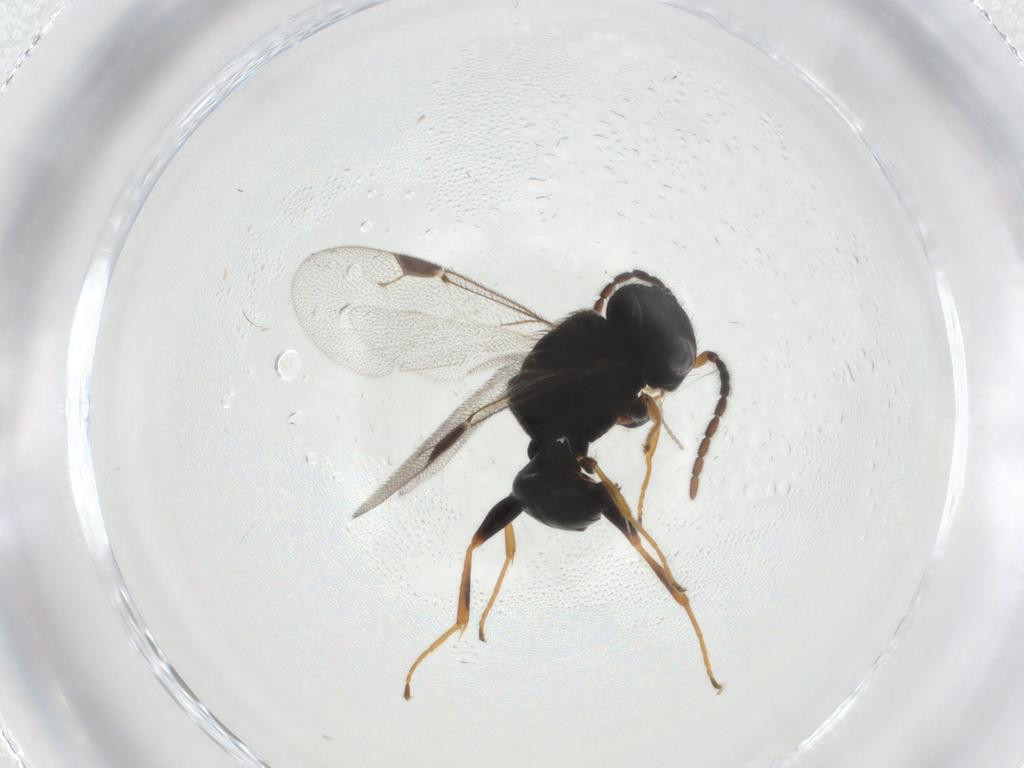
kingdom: Animalia
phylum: Arthropoda
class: Insecta
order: Hymenoptera
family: Dryinidae
